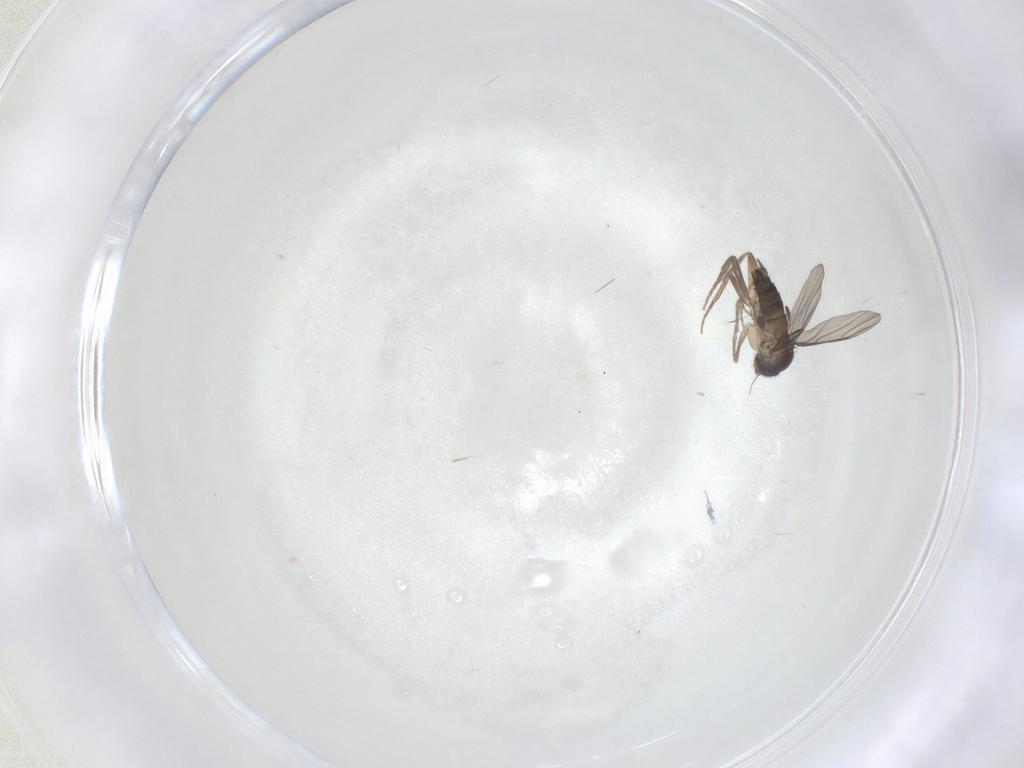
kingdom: Animalia
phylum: Arthropoda
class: Insecta
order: Diptera
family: Phoridae
